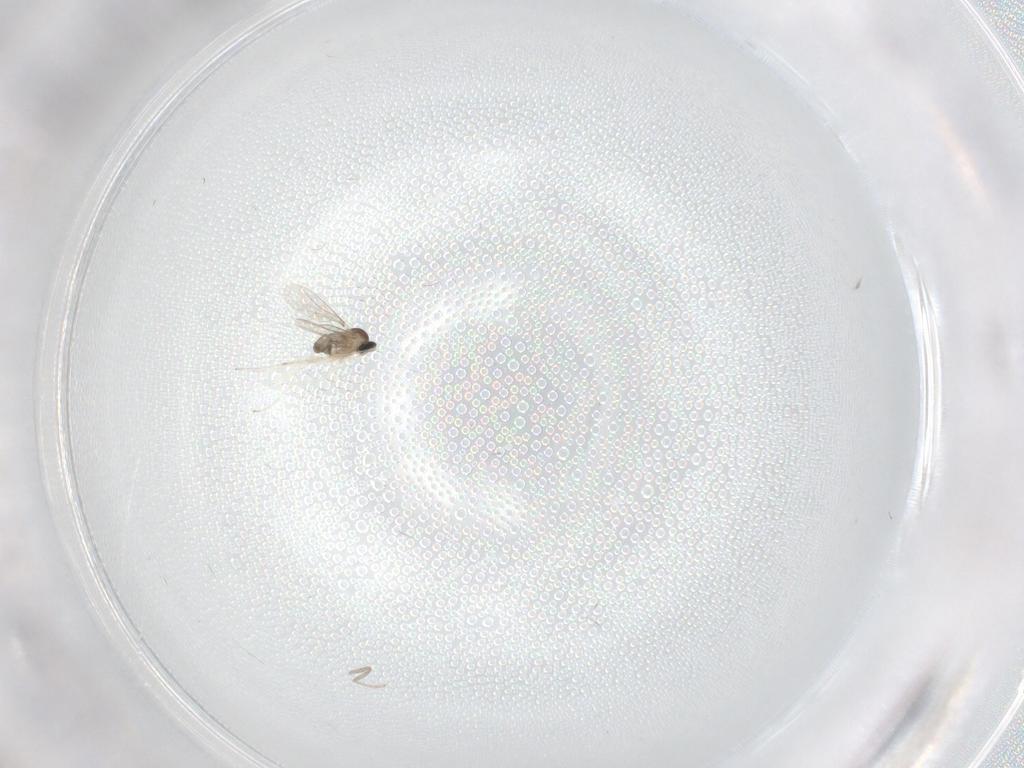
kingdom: Animalia
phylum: Arthropoda
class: Insecta
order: Diptera
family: Cecidomyiidae
